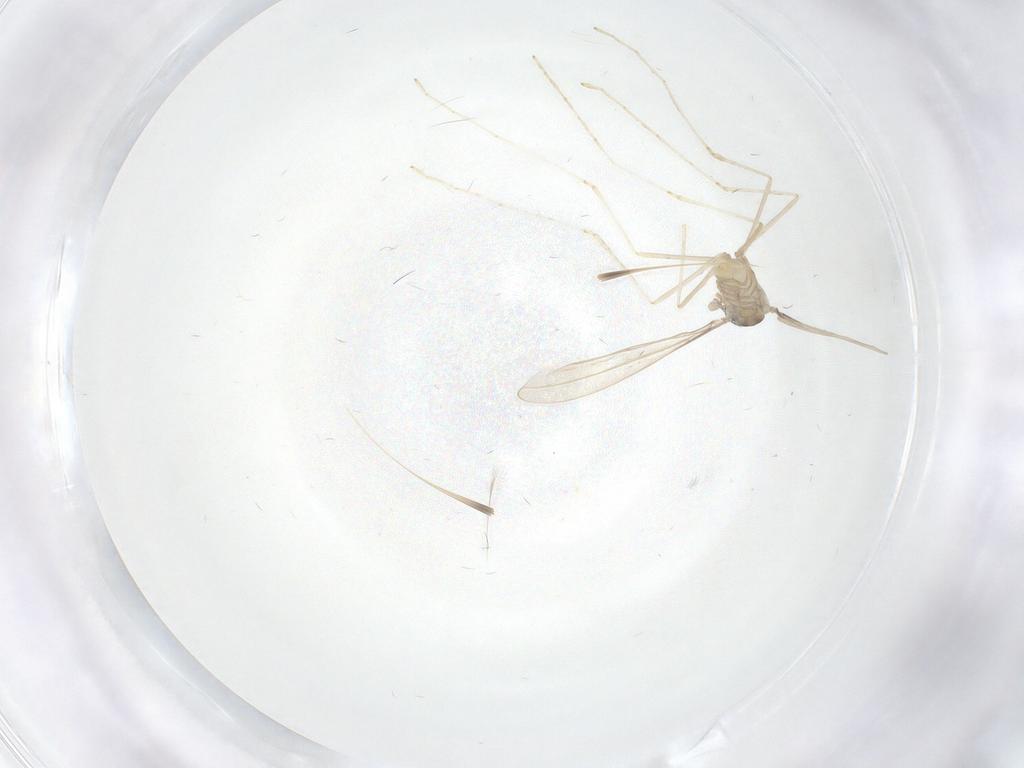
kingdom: Animalia
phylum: Arthropoda
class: Insecta
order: Diptera
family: Cecidomyiidae
